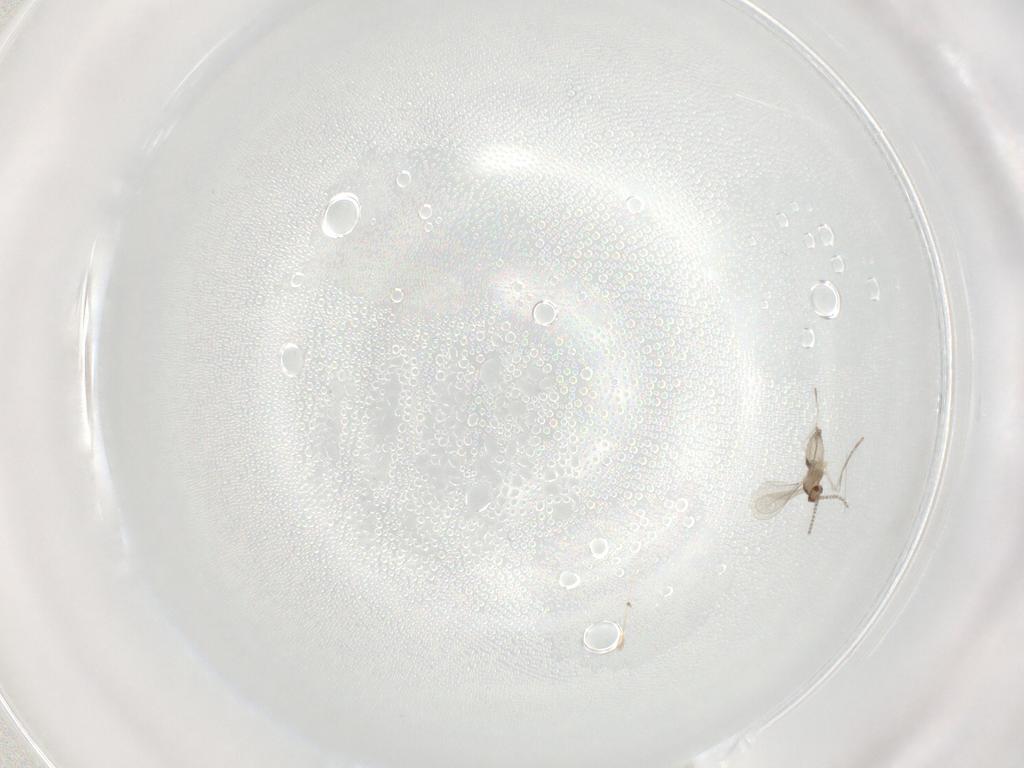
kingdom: Animalia
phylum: Arthropoda
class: Insecta
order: Diptera
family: Cecidomyiidae
